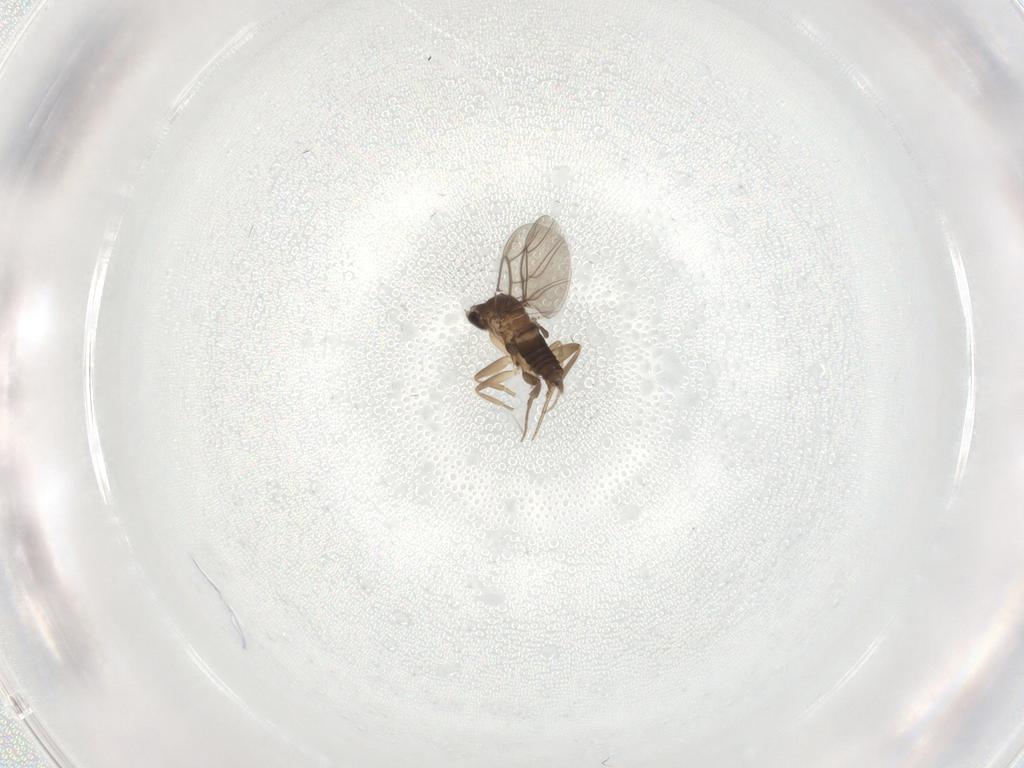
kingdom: Animalia
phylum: Arthropoda
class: Insecta
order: Diptera
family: Phoridae
